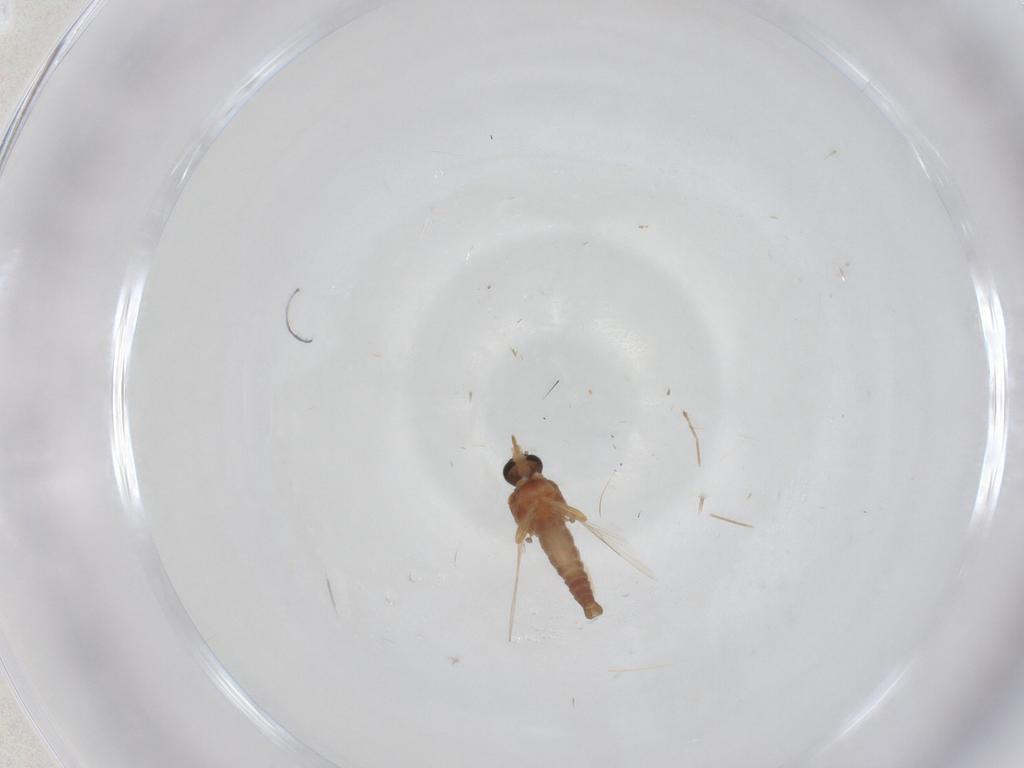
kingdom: Animalia
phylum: Arthropoda
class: Insecta
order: Diptera
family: Cecidomyiidae
